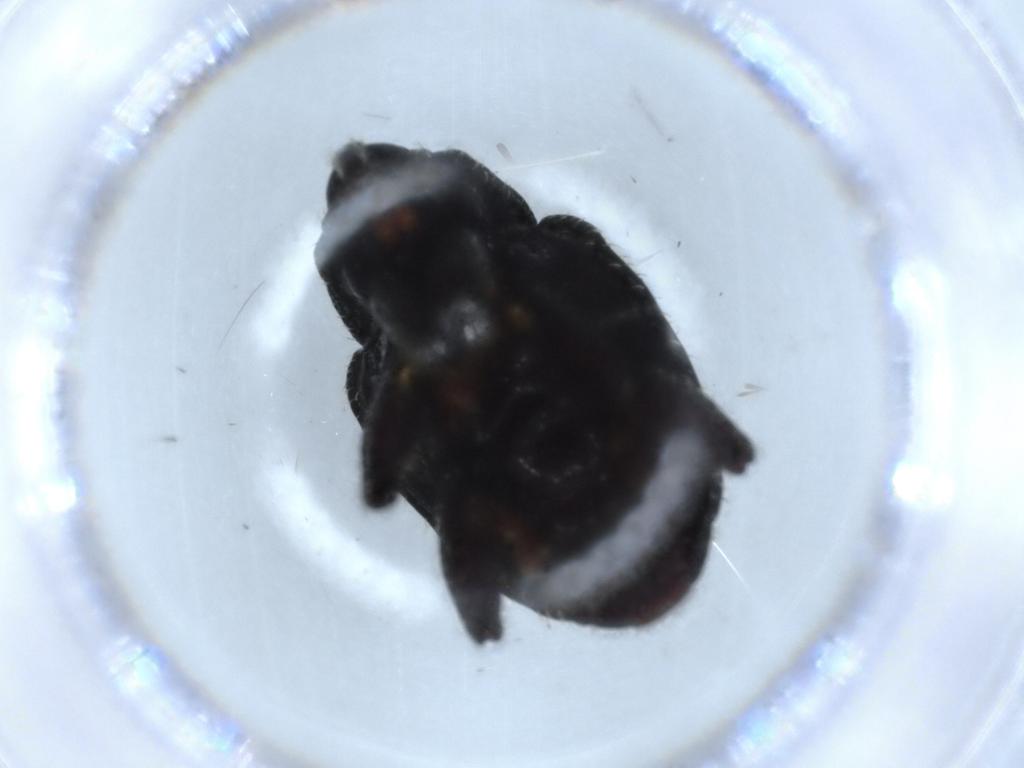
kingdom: Animalia
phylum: Arthropoda
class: Insecta
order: Coleoptera
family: Curculionidae
